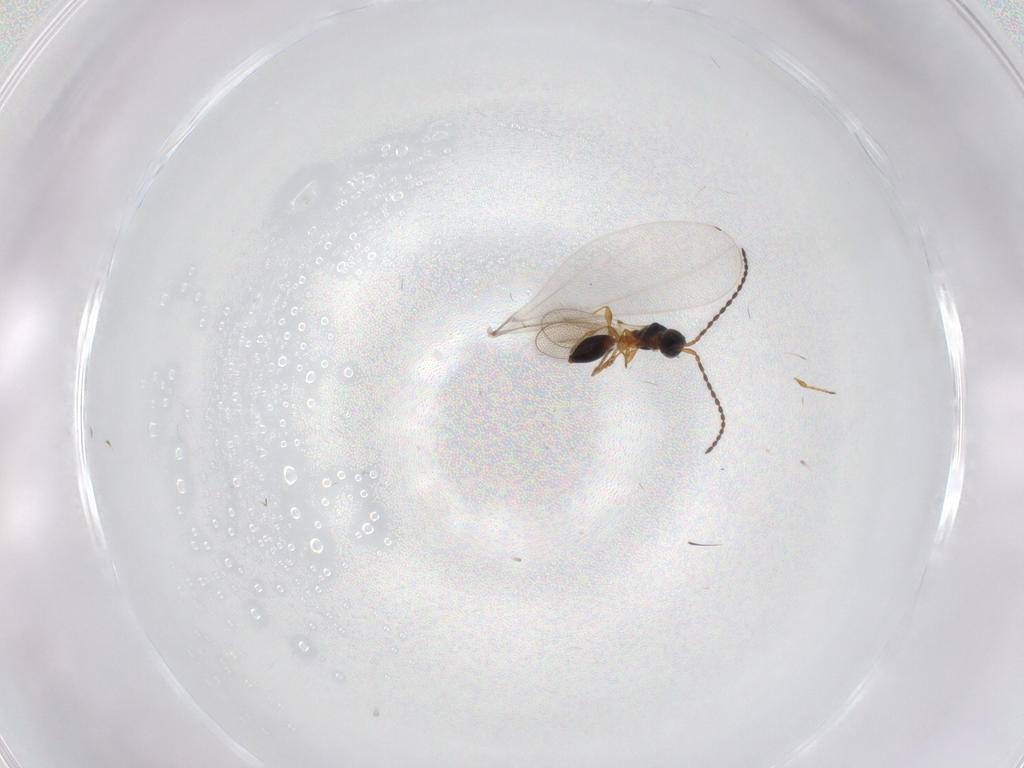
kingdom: Animalia
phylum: Arthropoda
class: Insecta
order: Hymenoptera
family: Diapriidae
